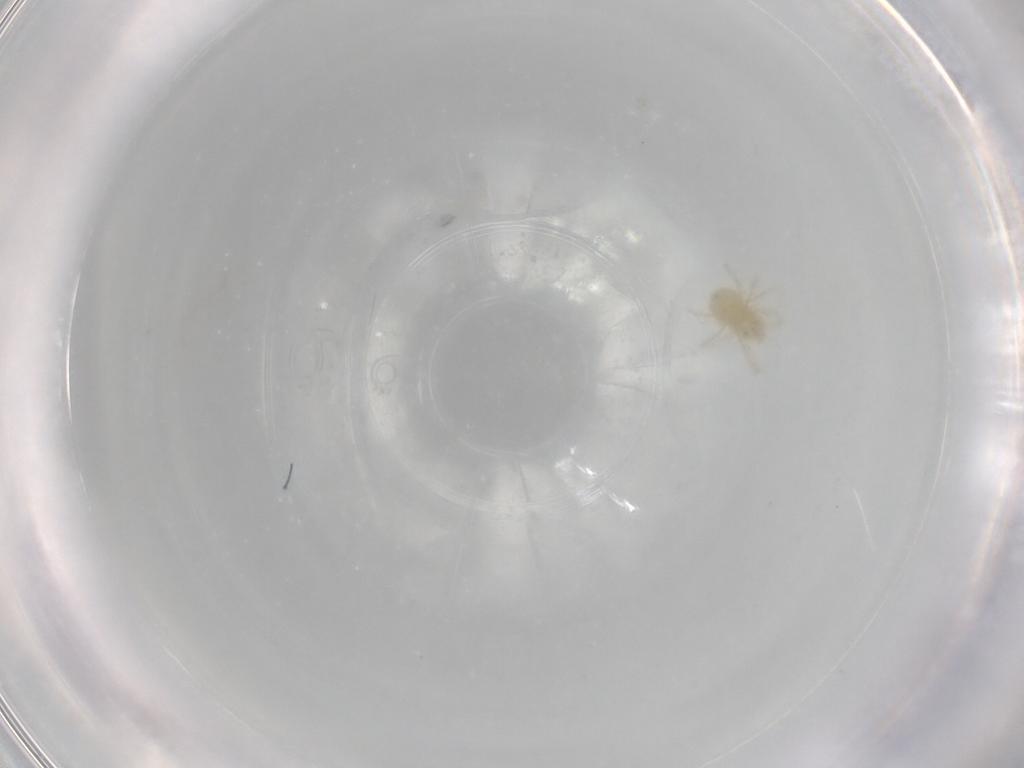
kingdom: Animalia
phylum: Arthropoda
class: Arachnida
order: Trombidiformes
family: Anystidae
